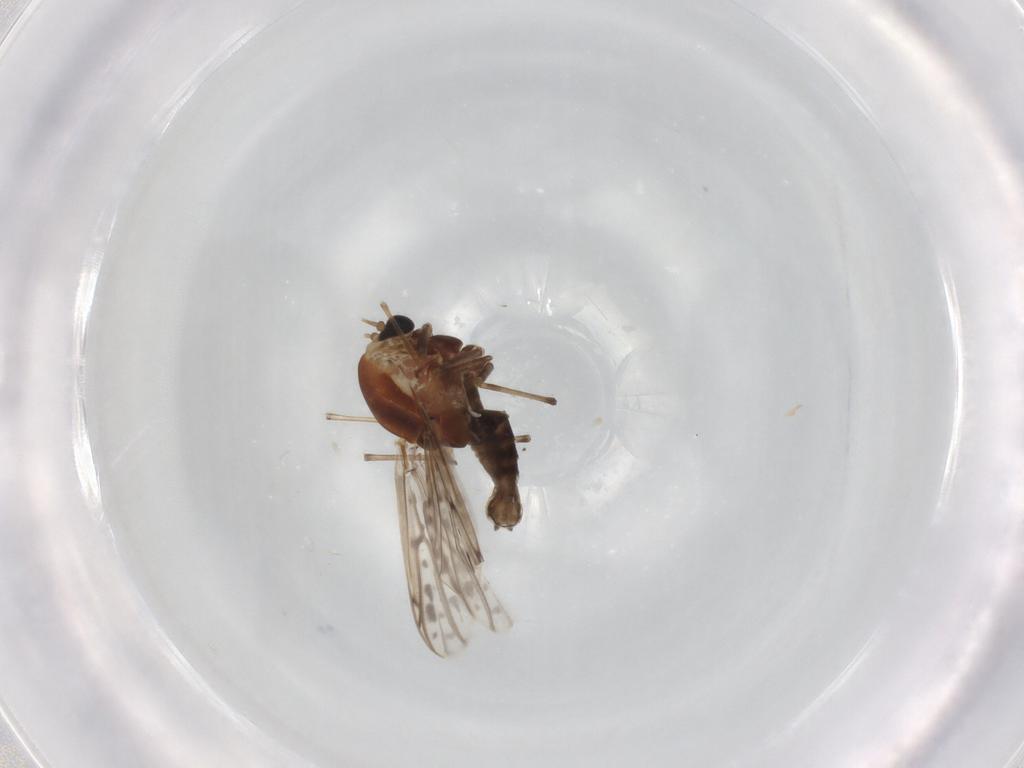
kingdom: Animalia
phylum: Arthropoda
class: Insecta
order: Diptera
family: Chironomidae
